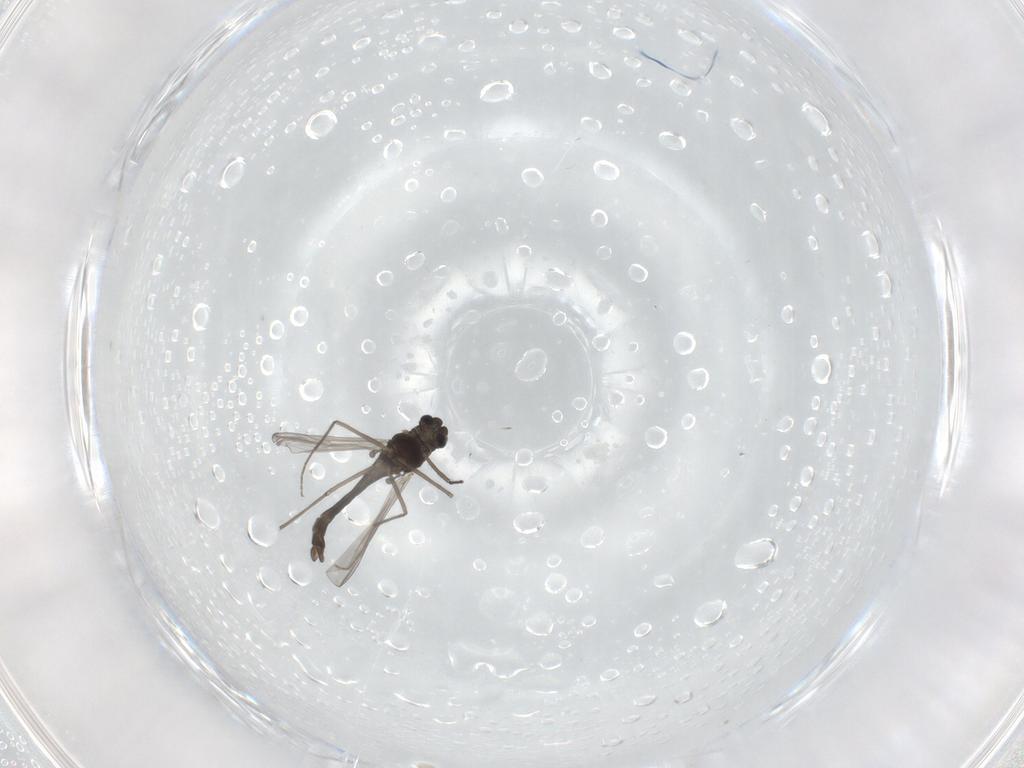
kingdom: Animalia
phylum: Arthropoda
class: Insecta
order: Diptera
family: Chironomidae
